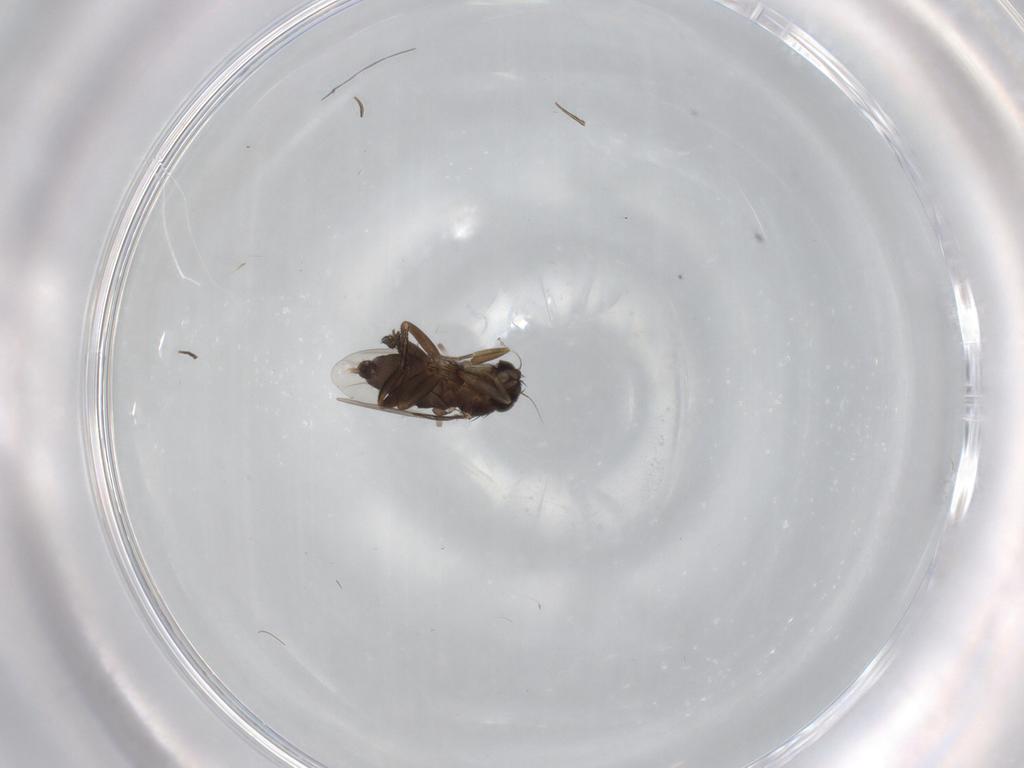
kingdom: Animalia
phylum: Arthropoda
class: Insecta
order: Diptera
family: Phoridae
